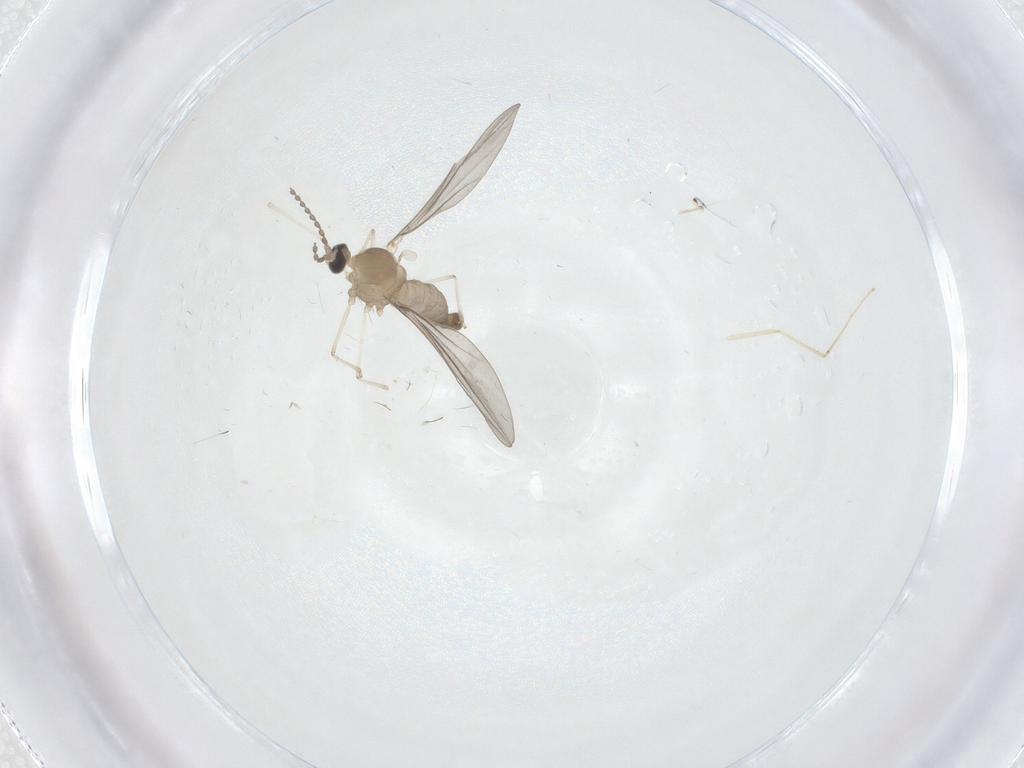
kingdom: Animalia
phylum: Arthropoda
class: Insecta
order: Diptera
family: Cecidomyiidae
